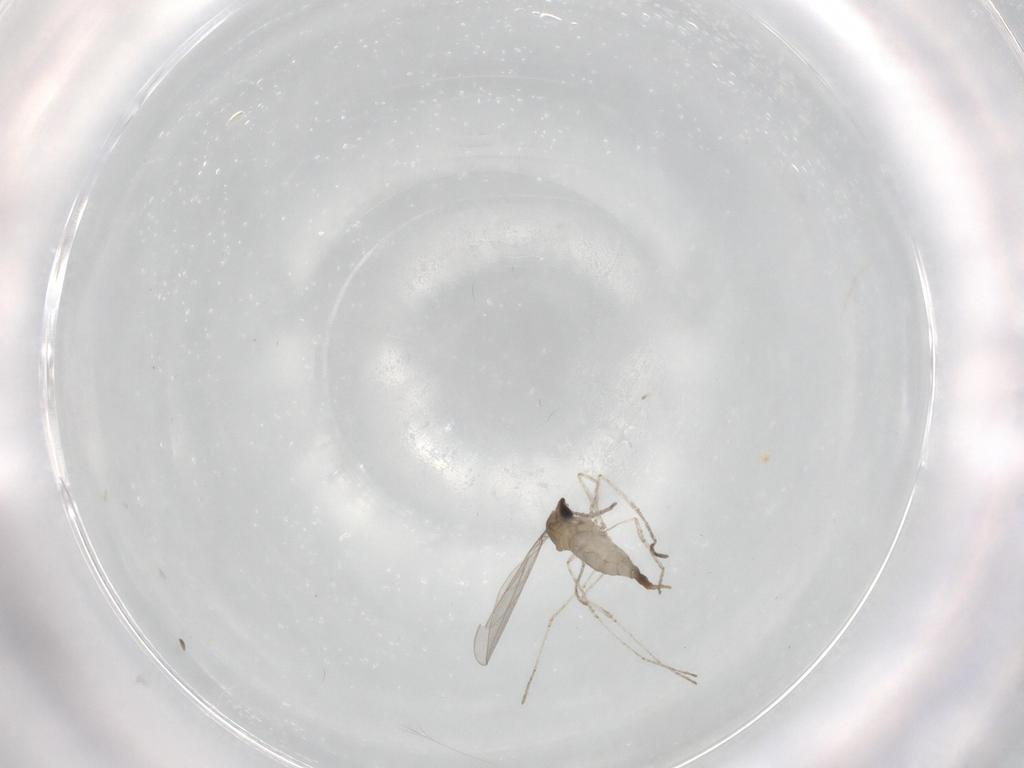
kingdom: Animalia
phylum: Arthropoda
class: Insecta
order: Diptera
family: Cecidomyiidae
